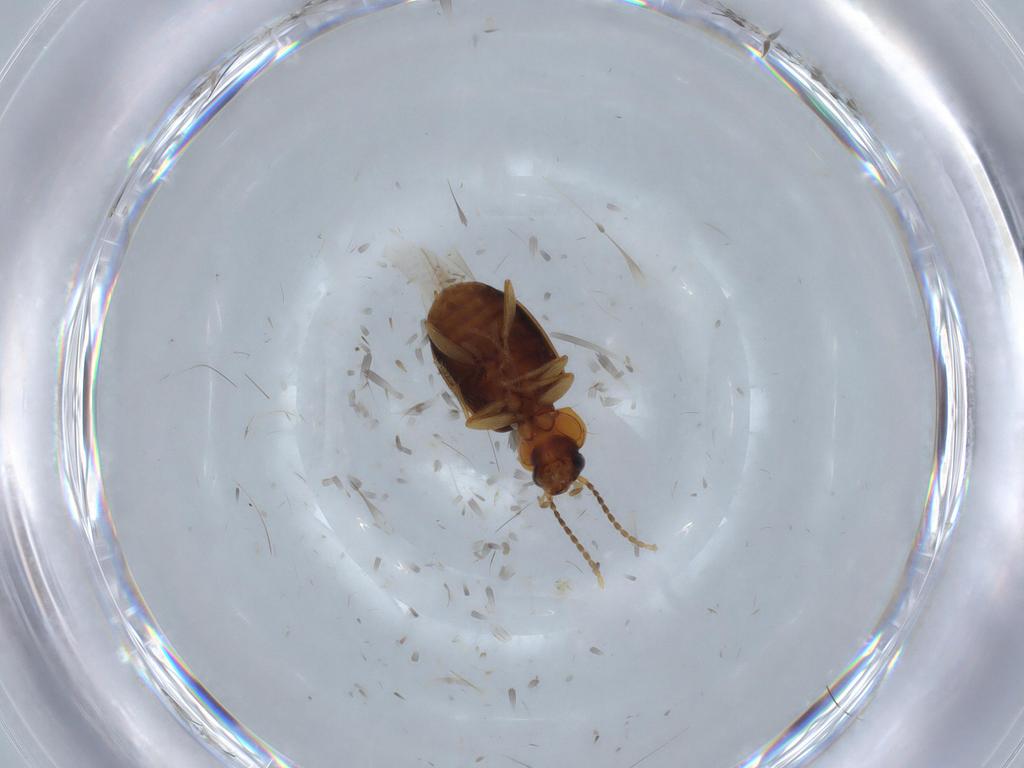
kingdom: Animalia
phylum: Arthropoda
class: Insecta
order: Coleoptera
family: Carabidae
